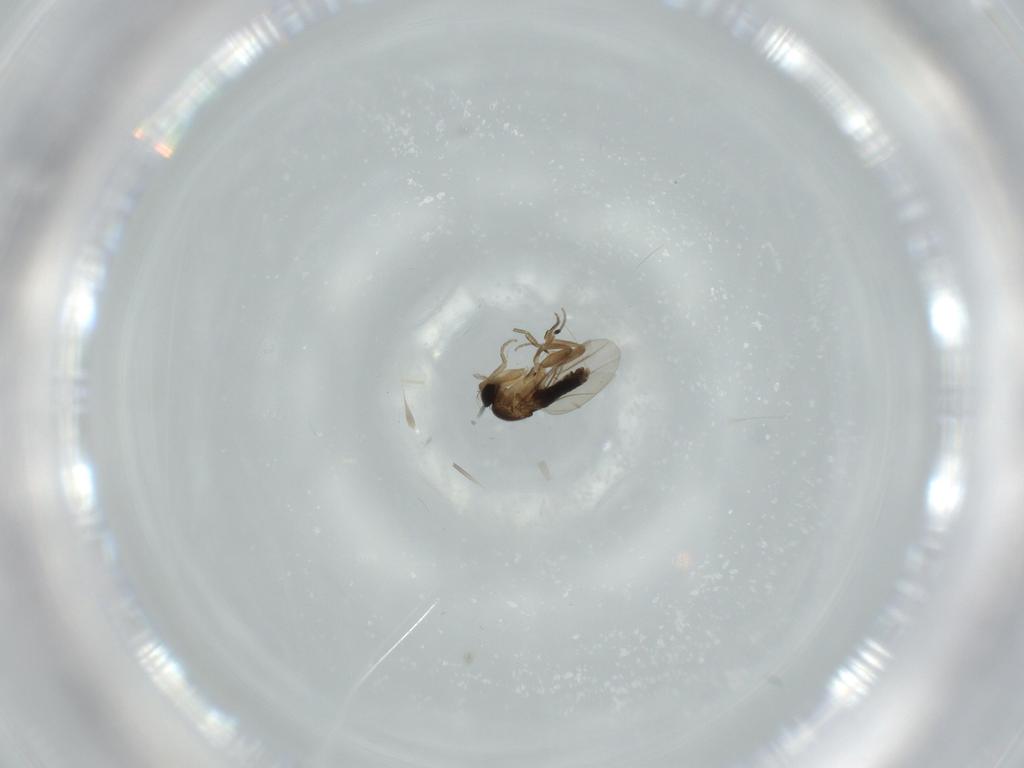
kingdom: Animalia
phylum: Arthropoda
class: Insecta
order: Diptera
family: Phoridae
